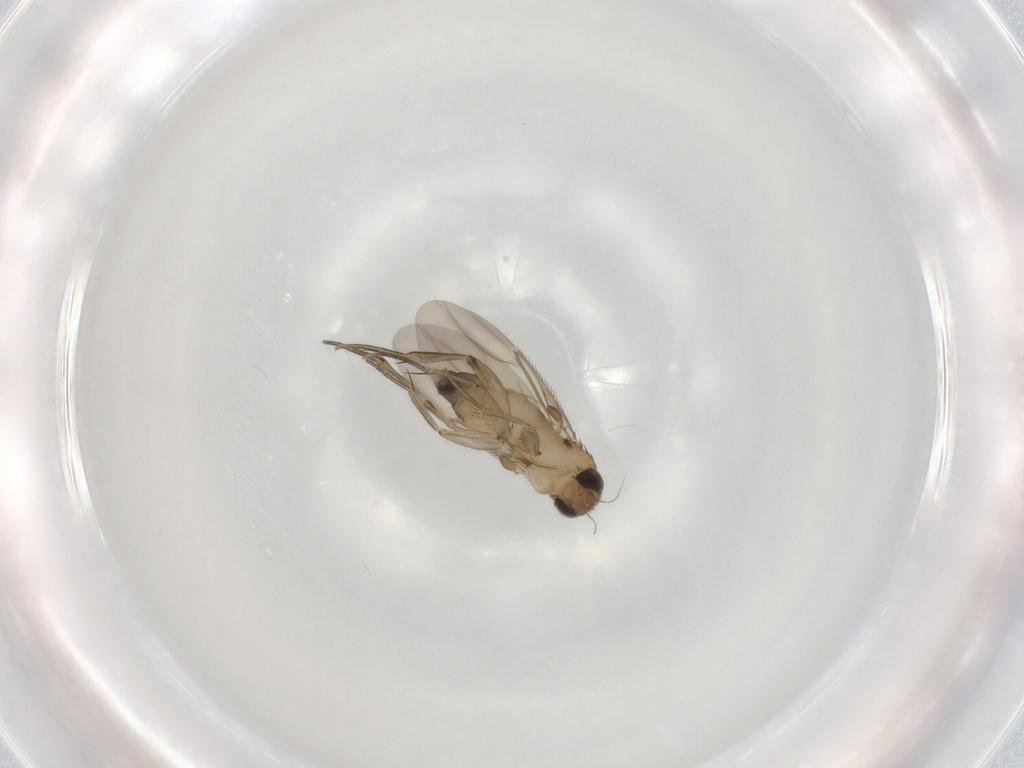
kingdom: Animalia
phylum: Arthropoda
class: Insecta
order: Diptera
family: Phoridae
